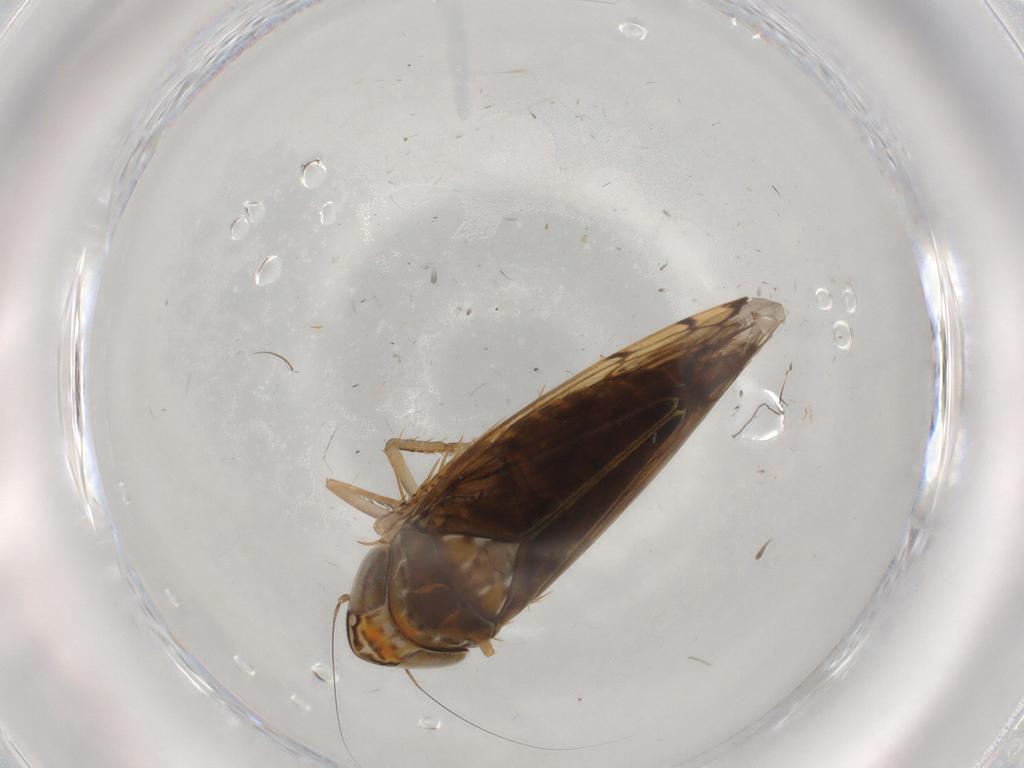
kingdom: Animalia
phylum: Arthropoda
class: Insecta
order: Hemiptera
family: Cicadellidae
